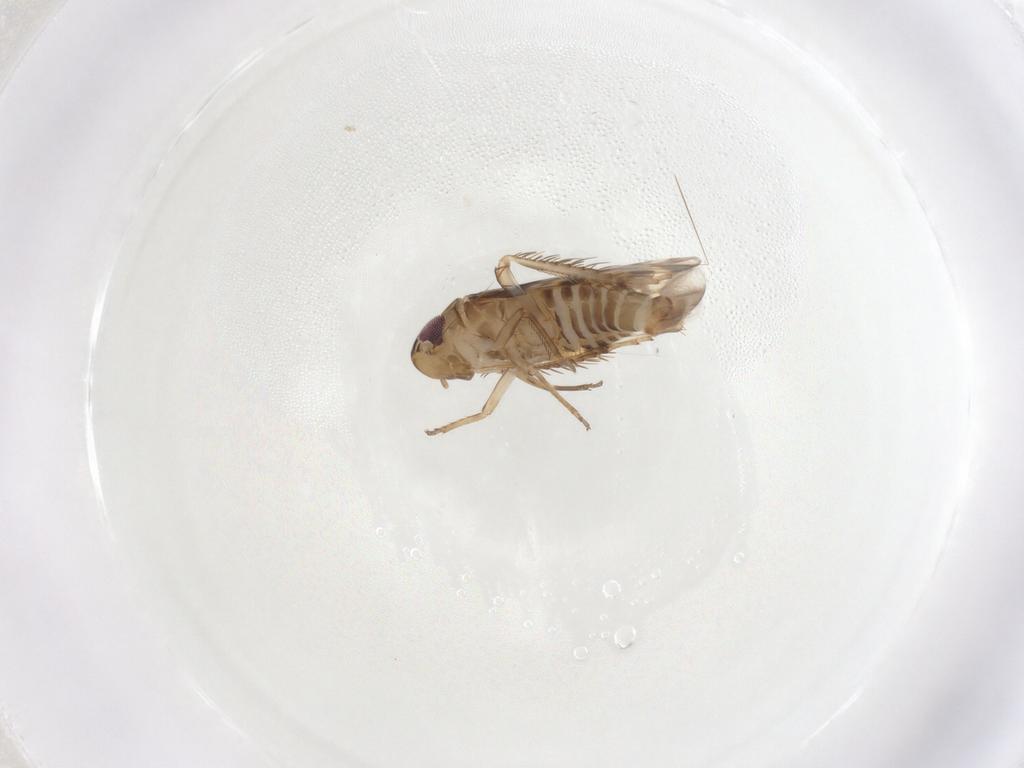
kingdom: Animalia
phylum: Arthropoda
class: Insecta
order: Hemiptera
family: Cicadellidae
